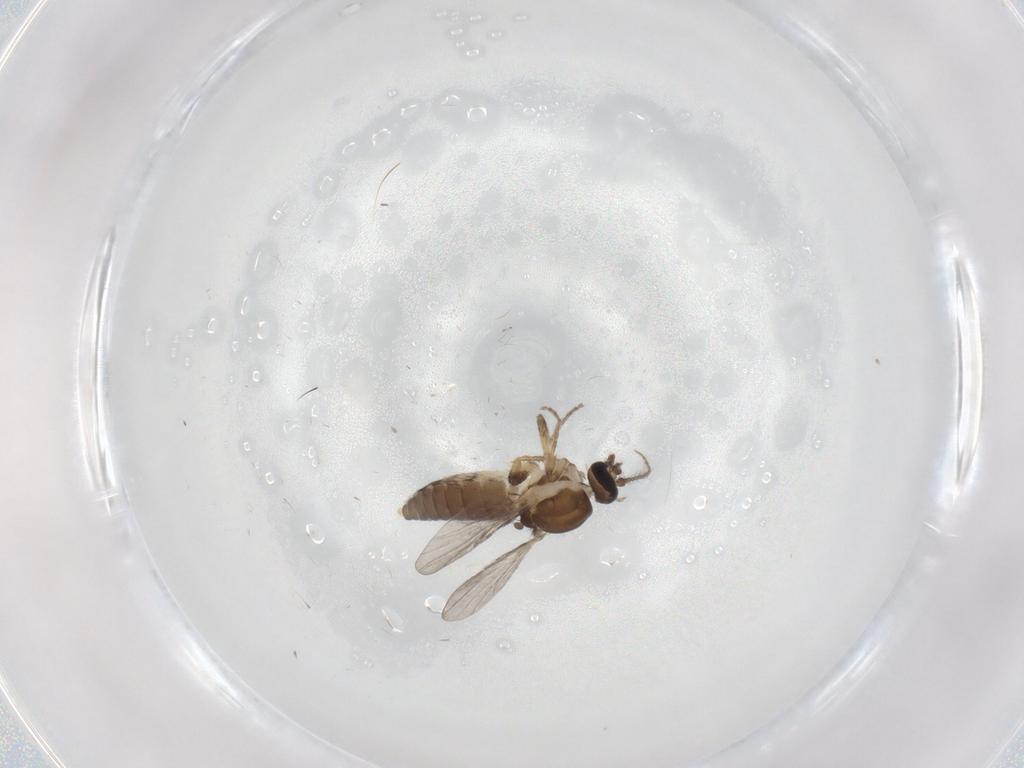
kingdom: Animalia
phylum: Arthropoda
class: Insecta
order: Diptera
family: Ceratopogonidae
